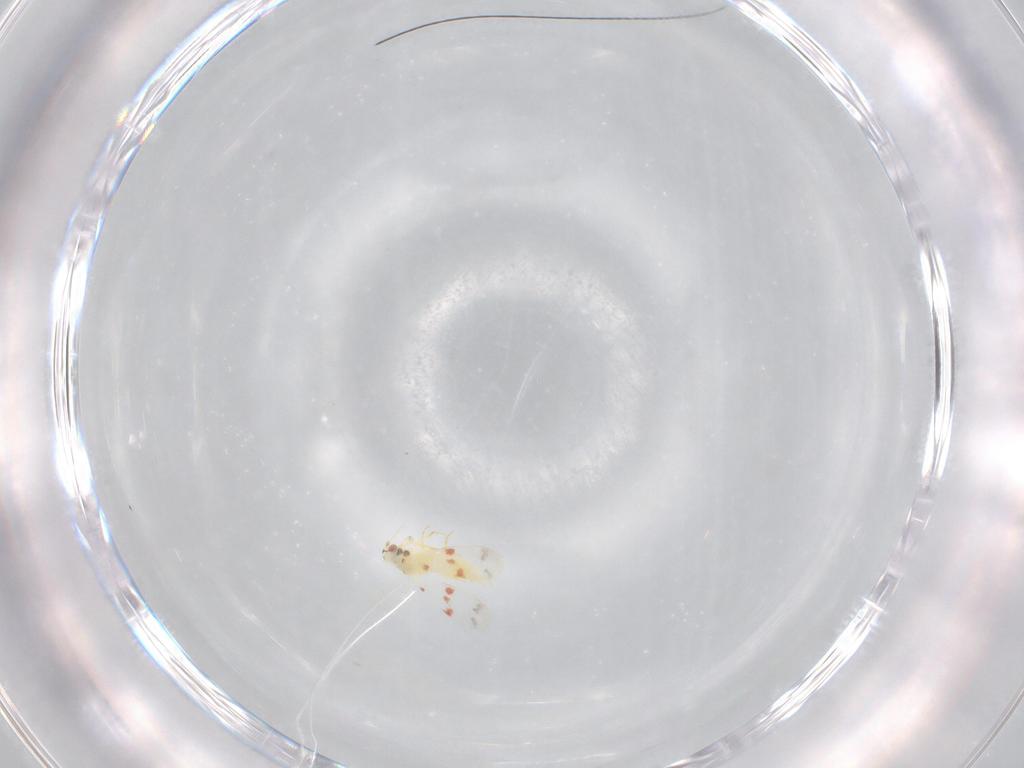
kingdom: Animalia
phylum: Arthropoda
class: Insecta
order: Hemiptera
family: Aleyrodidae
